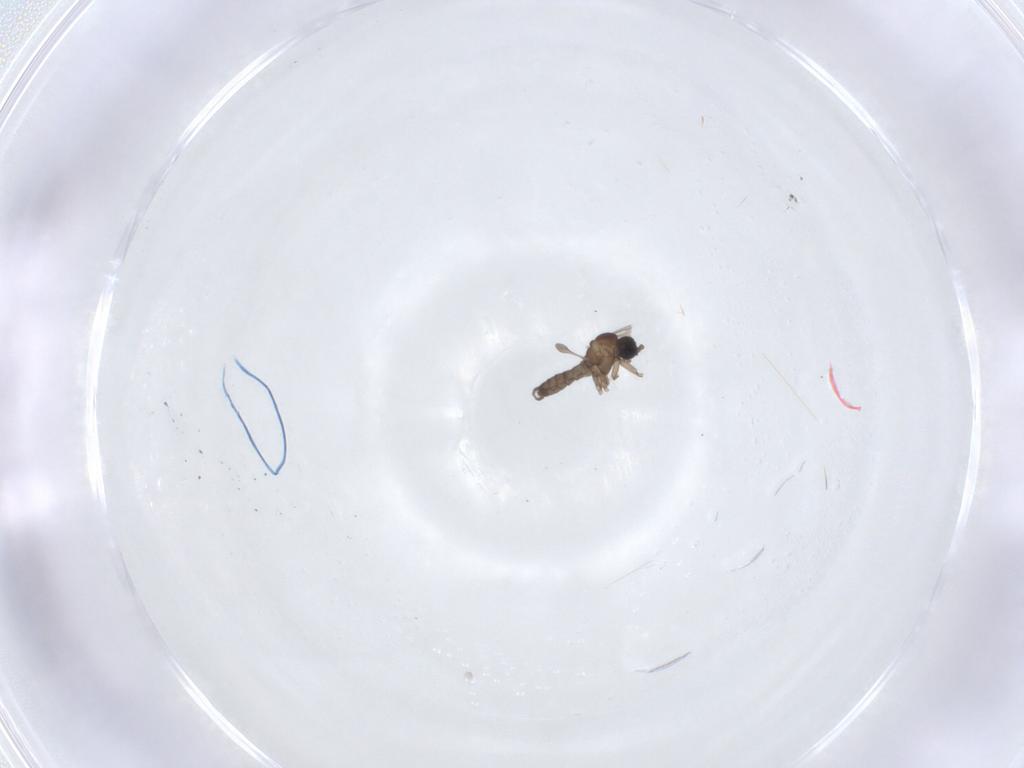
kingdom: Animalia
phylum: Arthropoda
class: Insecta
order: Diptera
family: Sciaridae
